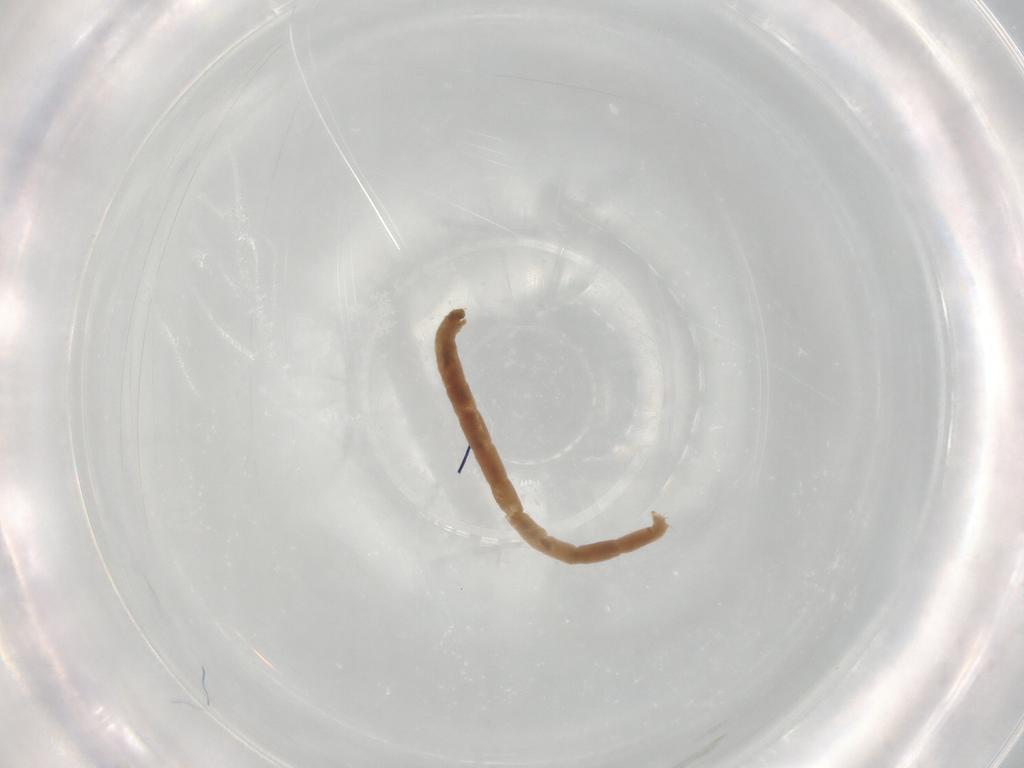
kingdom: Animalia
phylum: Arthropoda
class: Insecta
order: Diptera
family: Chironomidae
